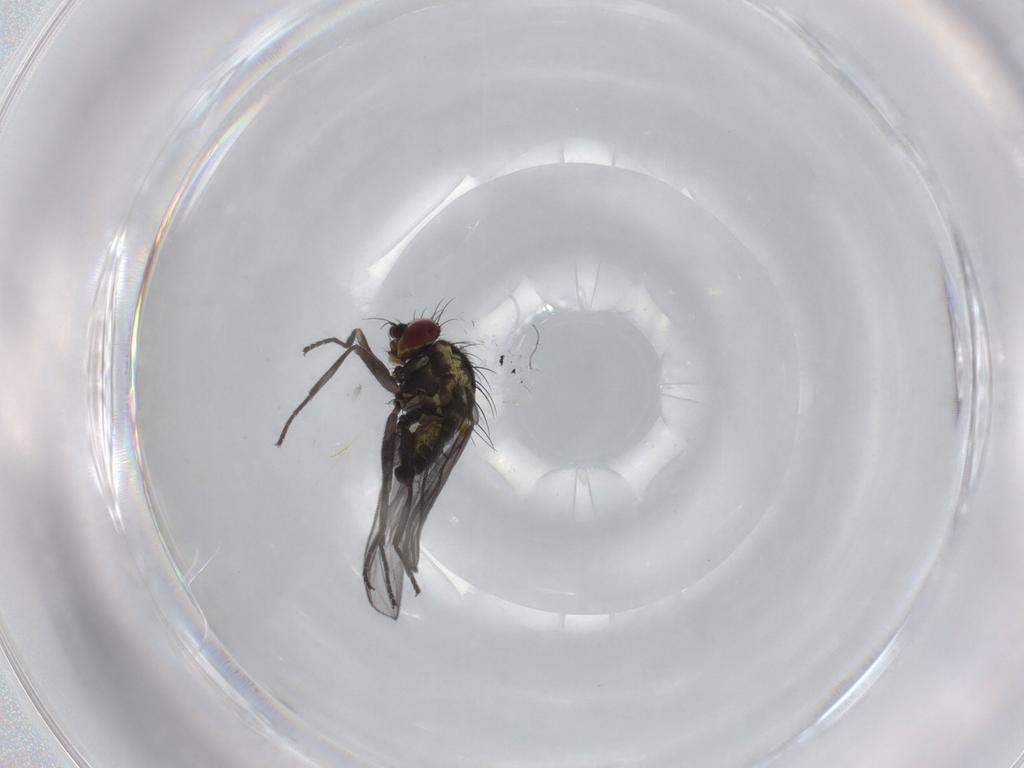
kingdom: Animalia
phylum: Arthropoda
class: Insecta
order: Diptera
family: Agromyzidae
